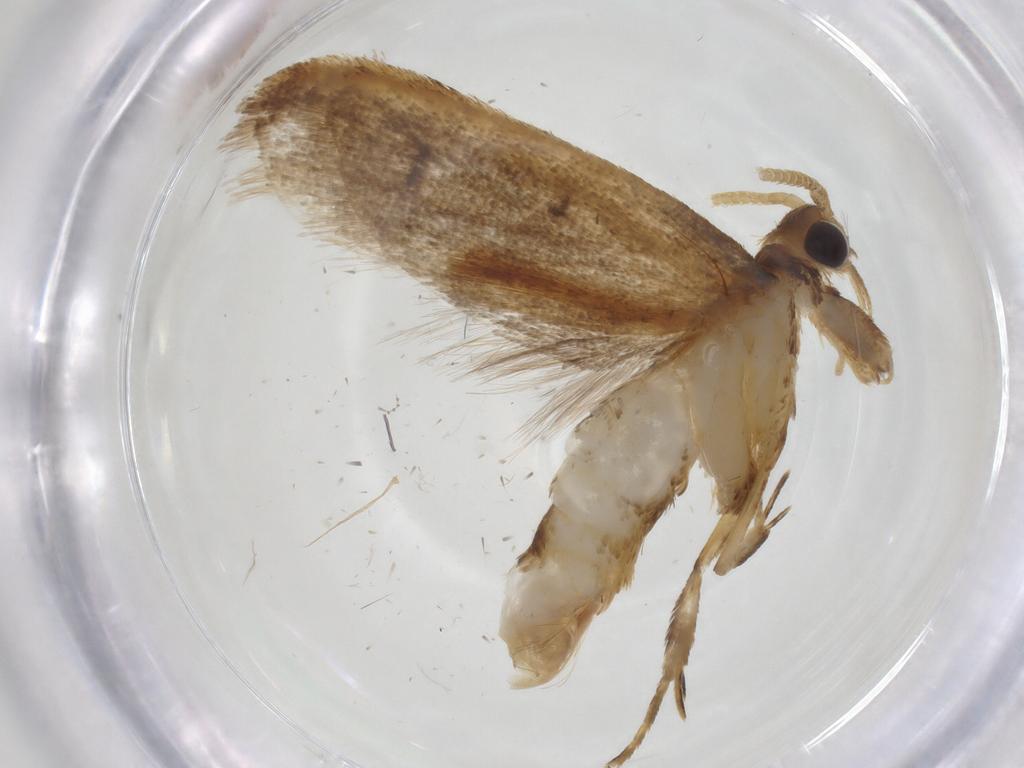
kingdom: Animalia
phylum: Arthropoda
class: Insecta
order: Lepidoptera
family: Lecithoceridae
